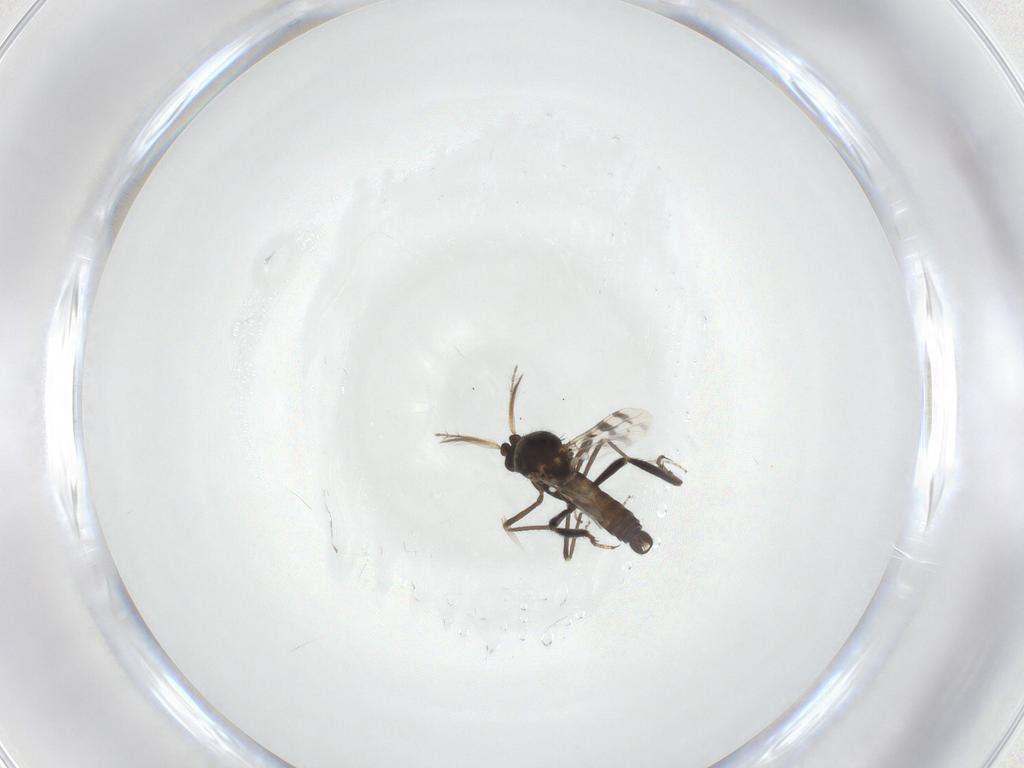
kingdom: Animalia
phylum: Arthropoda
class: Insecta
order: Diptera
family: Ceratopogonidae
